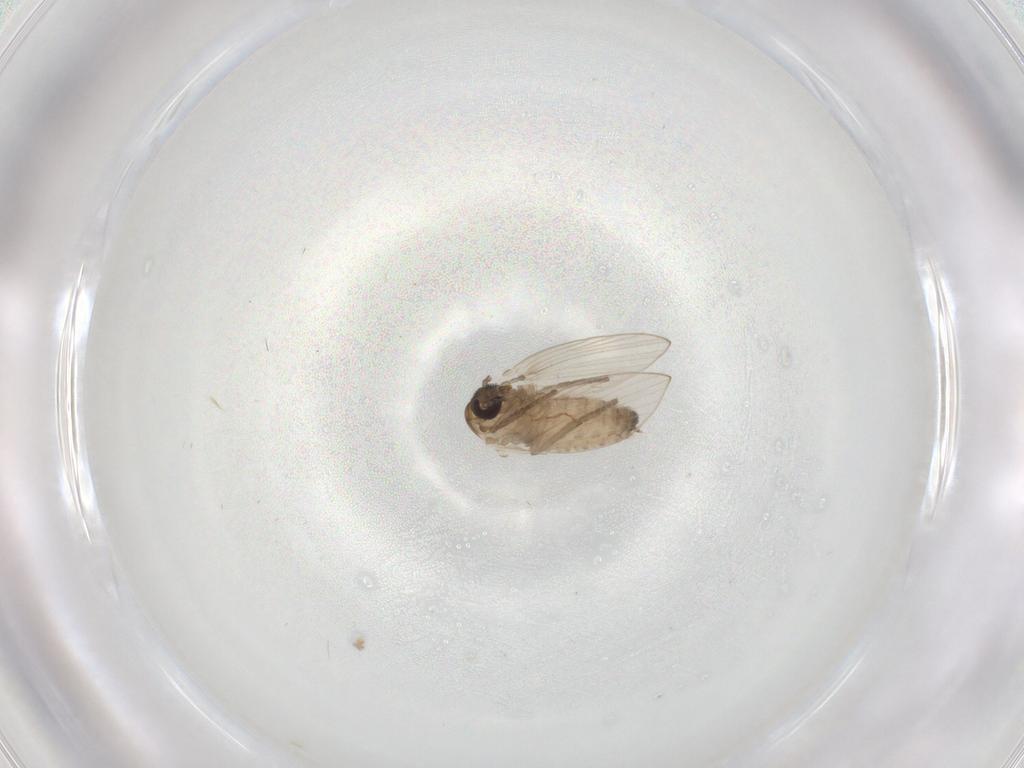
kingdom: Animalia
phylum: Arthropoda
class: Insecta
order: Diptera
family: Psychodidae
